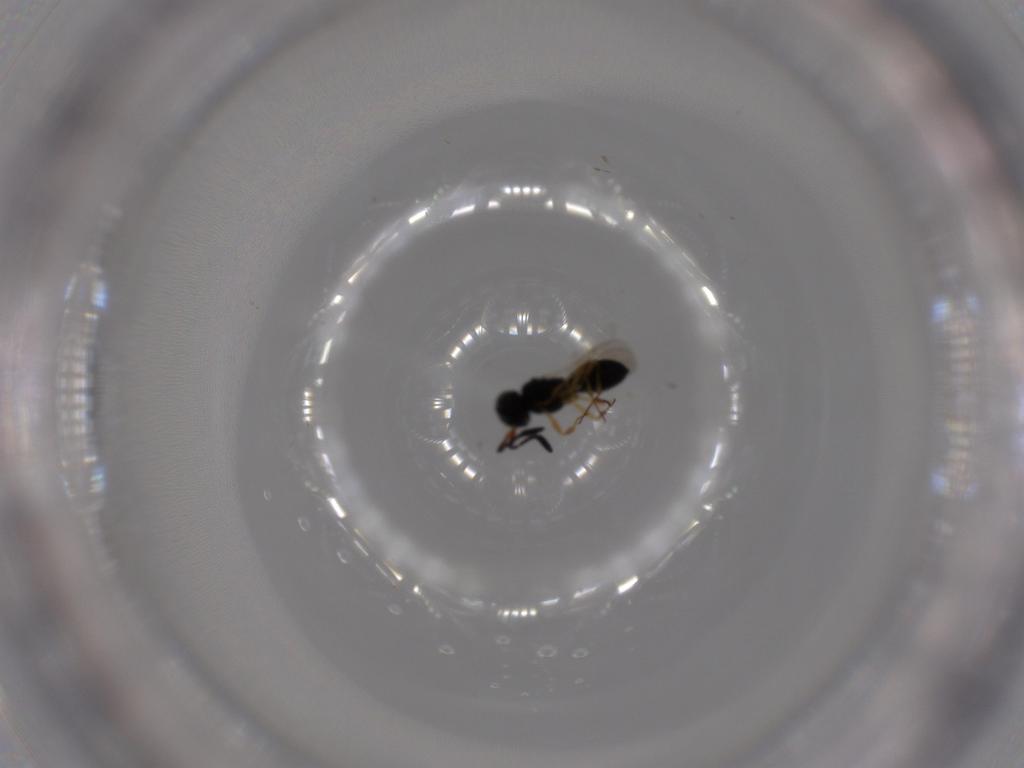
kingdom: Animalia
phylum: Arthropoda
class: Insecta
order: Hymenoptera
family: Scelionidae
